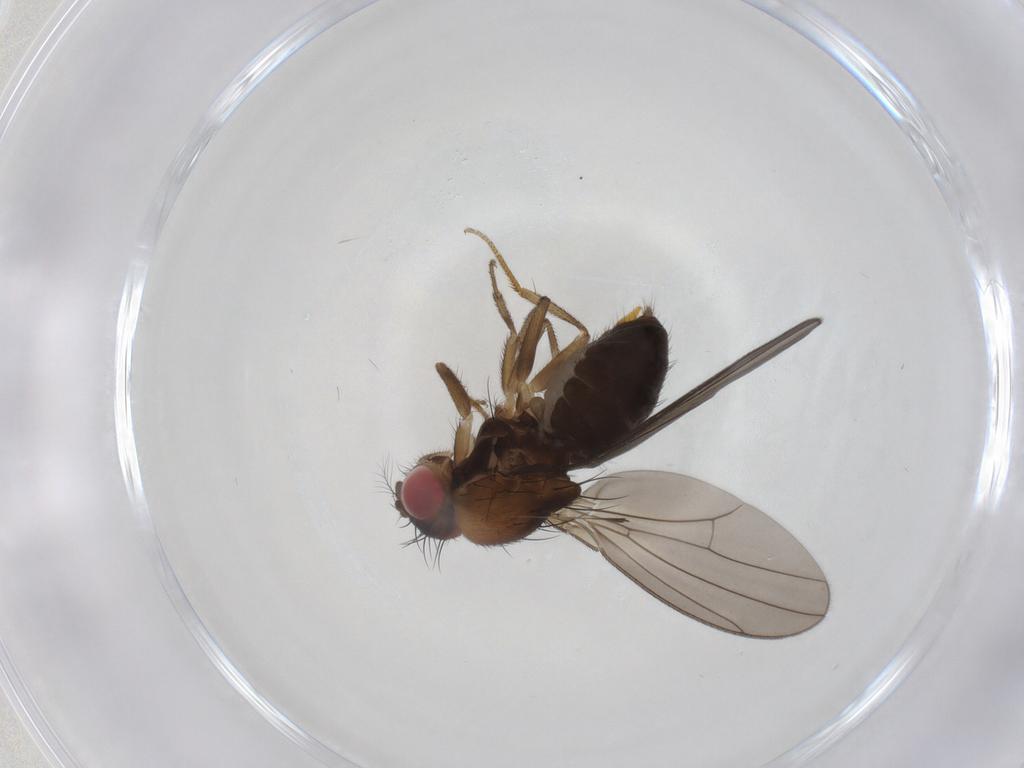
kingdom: Animalia
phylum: Arthropoda
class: Insecta
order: Diptera
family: Drosophilidae
